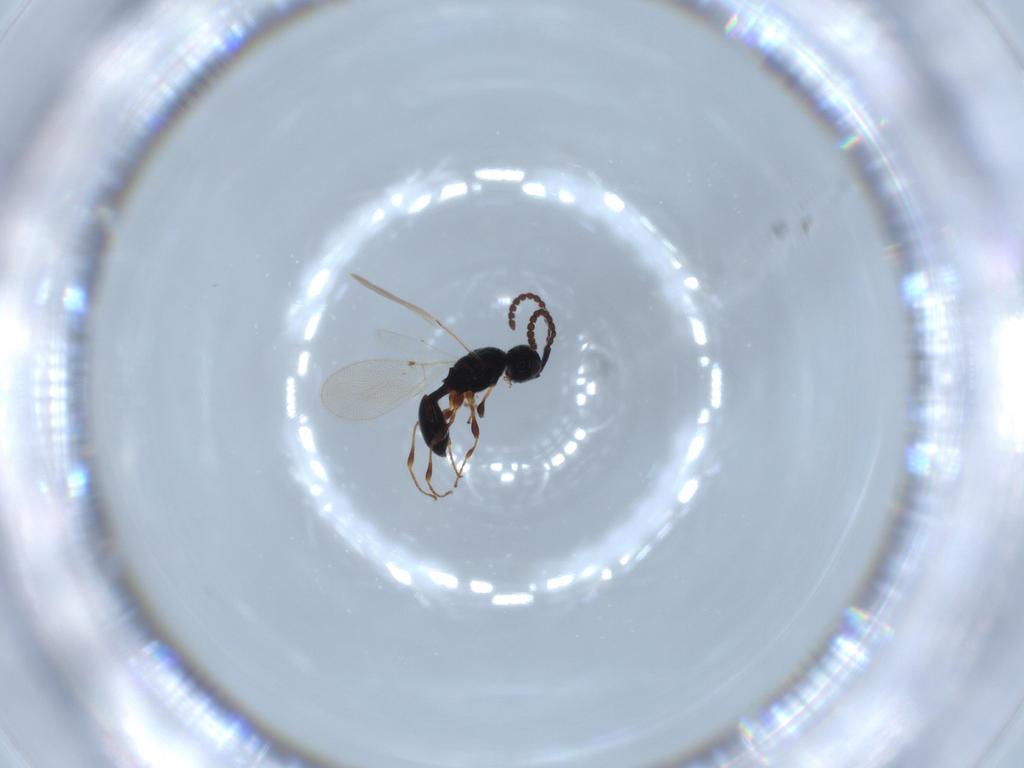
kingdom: Animalia
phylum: Arthropoda
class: Insecta
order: Hymenoptera
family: Diapriidae
